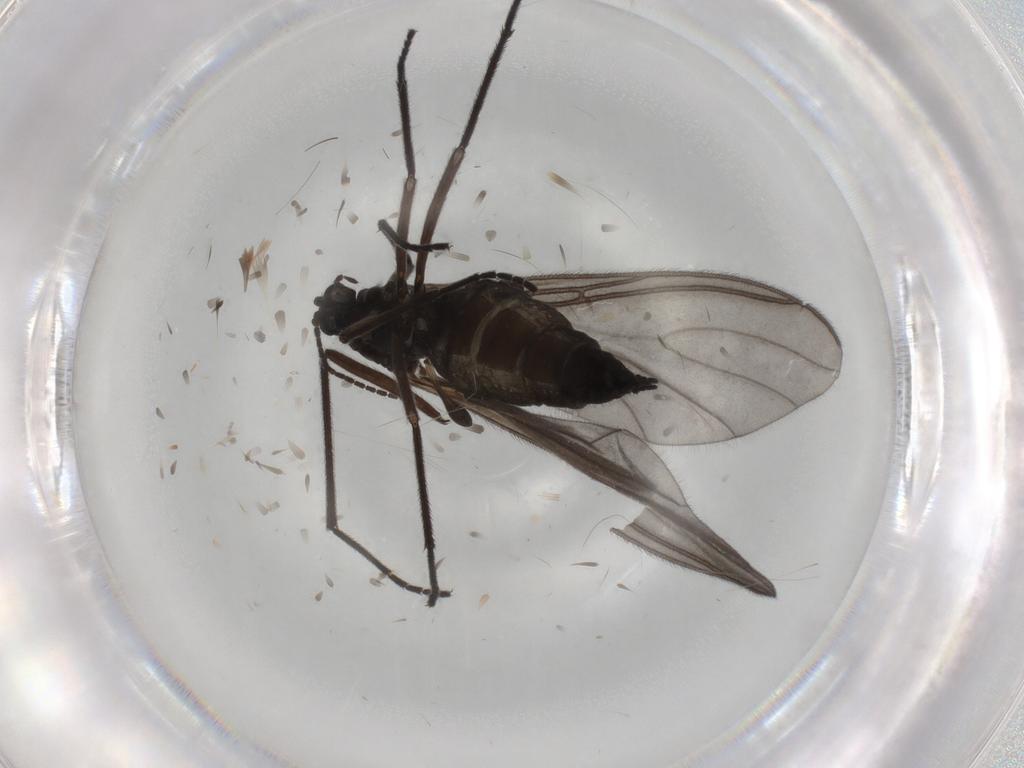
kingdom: Animalia
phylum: Arthropoda
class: Insecta
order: Diptera
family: Sciaridae
